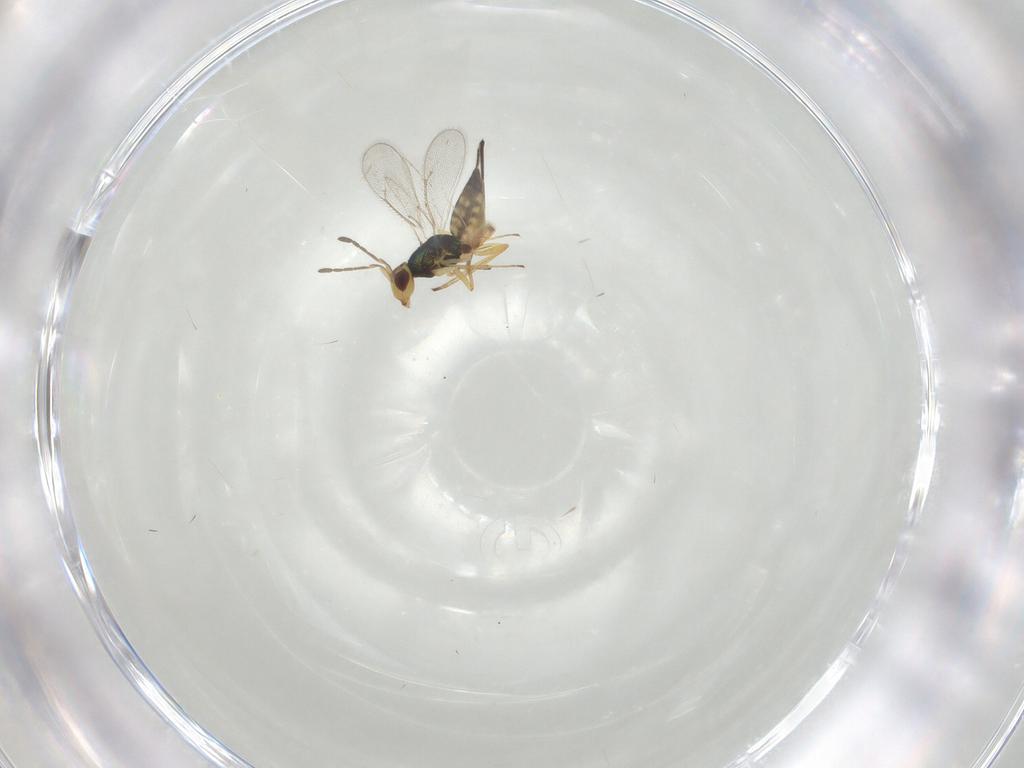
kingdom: Animalia
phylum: Arthropoda
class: Insecta
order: Hymenoptera
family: Eulophidae
